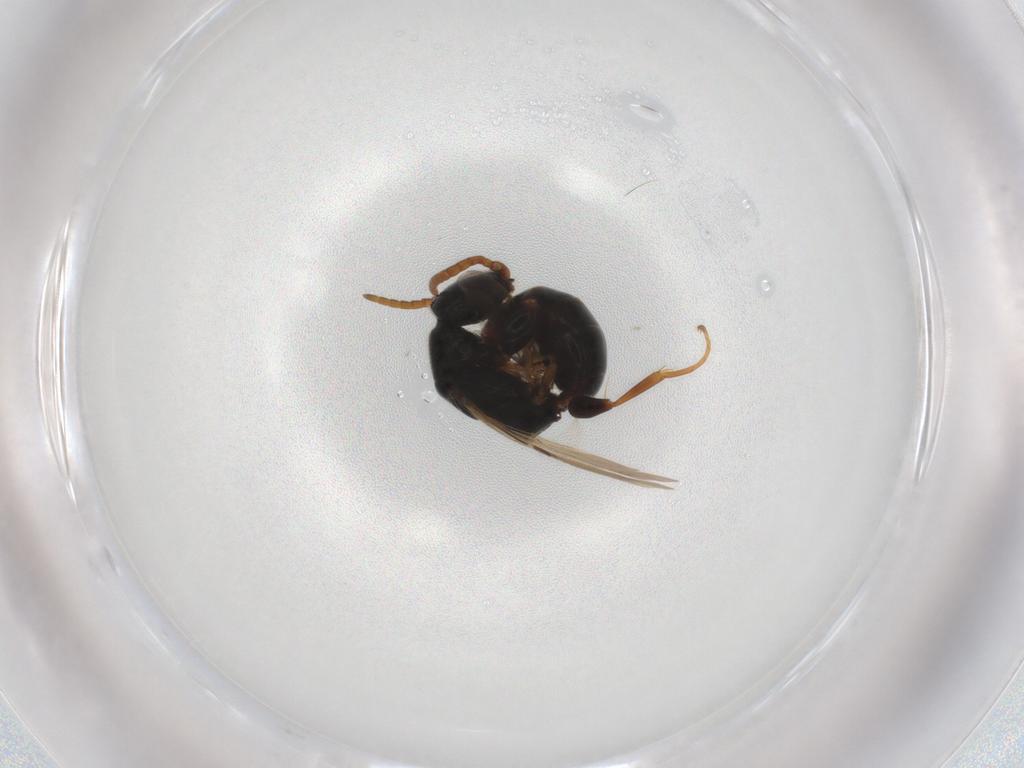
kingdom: Animalia
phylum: Arthropoda
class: Insecta
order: Hymenoptera
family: Bethylidae
